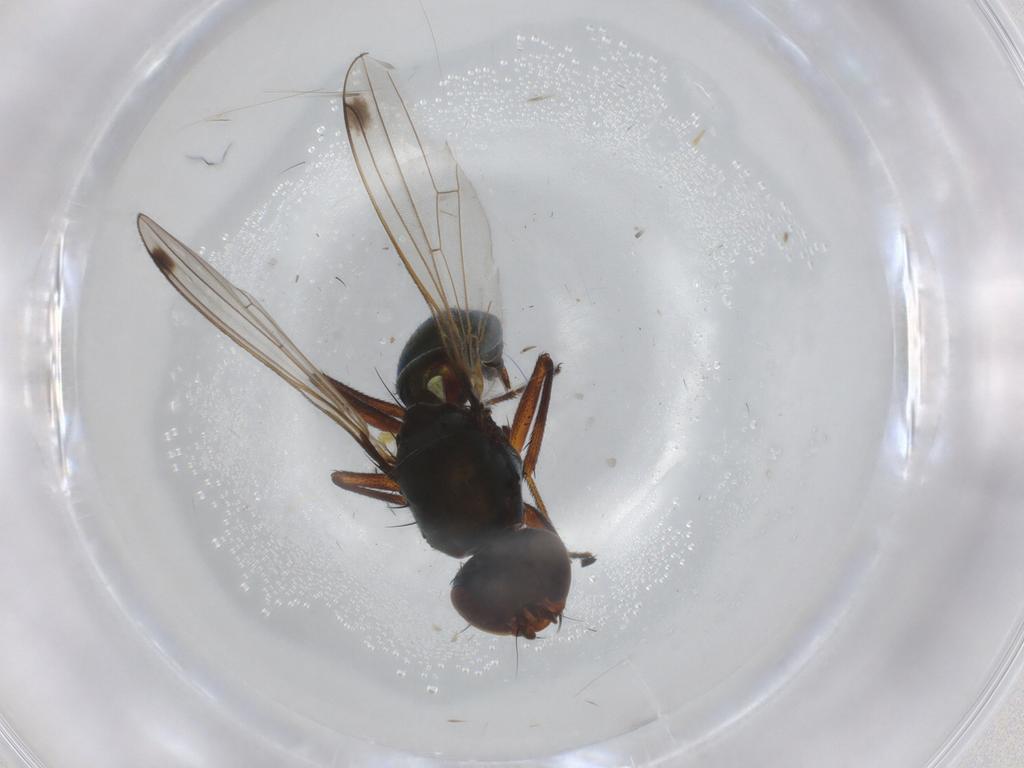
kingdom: Animalia
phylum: Arthropoda
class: Insecta
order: Diptera
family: Sepsidae
